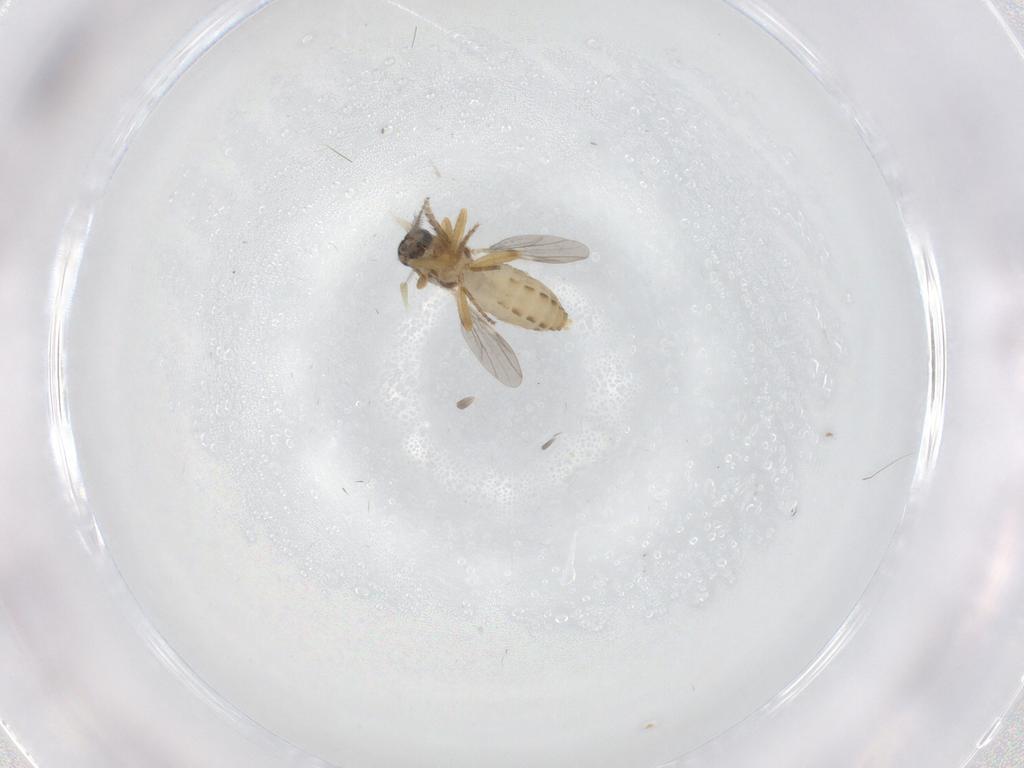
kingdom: Animalia
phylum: Arthropoda
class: Insecta
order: Diptera
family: Ceratopogonidae
